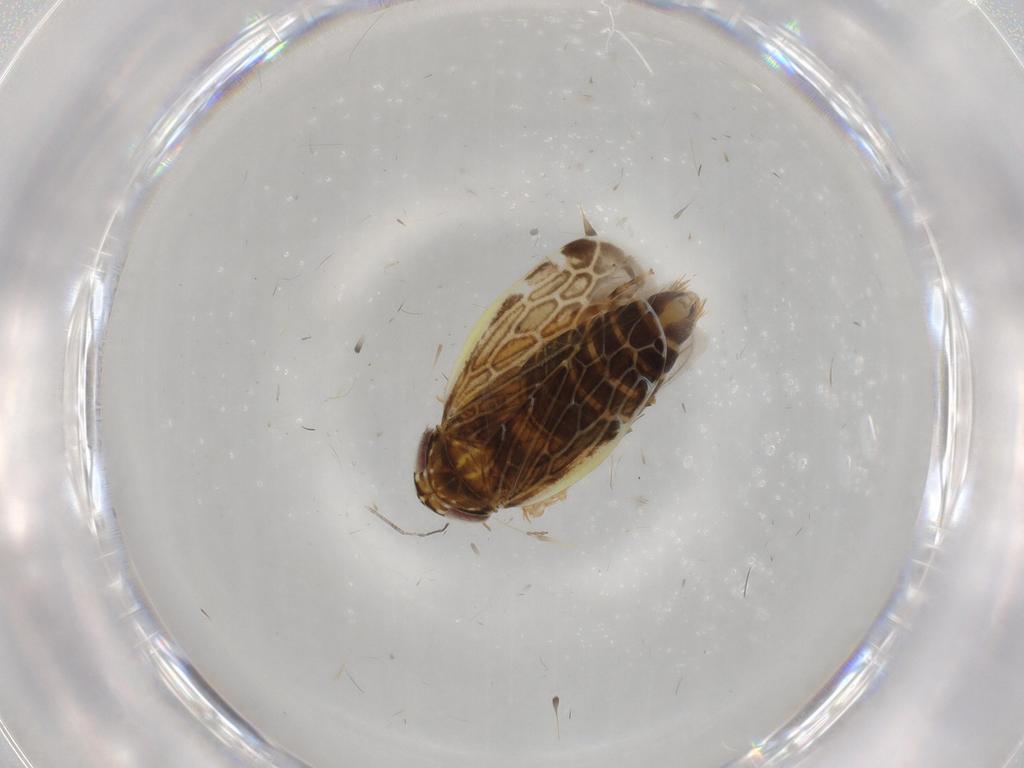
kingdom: Animalia
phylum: Arthropoda
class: Insecta
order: Hemiptera
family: Cicadellidae
